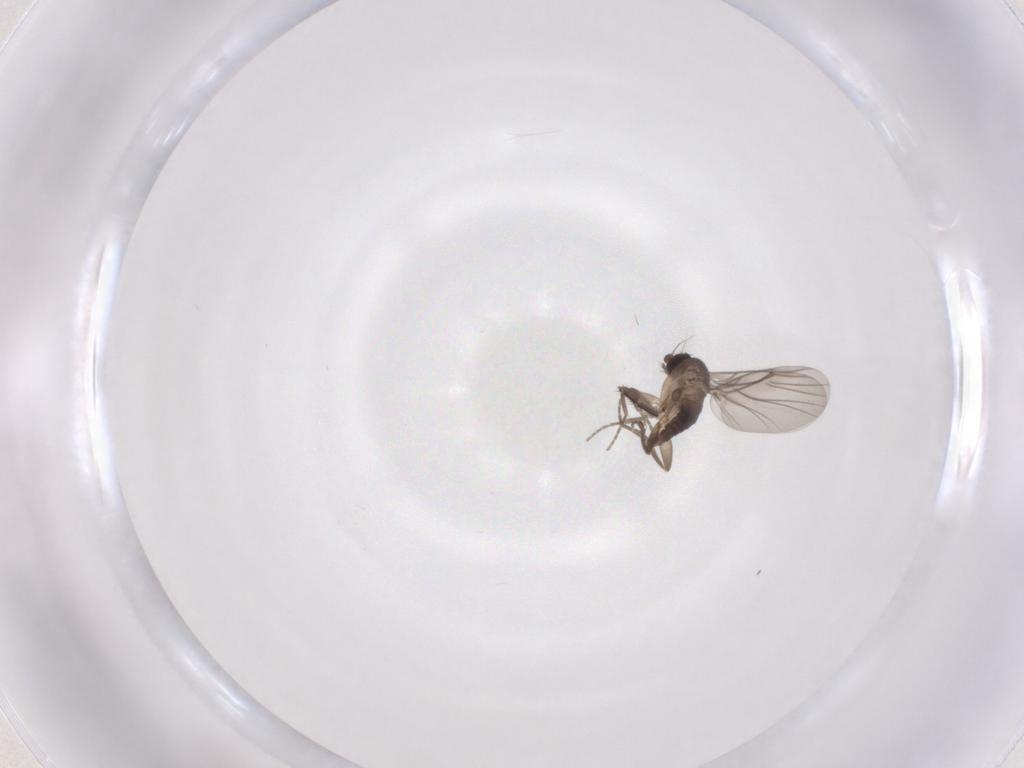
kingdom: Animalia
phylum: Arthropoda
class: Insecta
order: Diptera
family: Sciaridae
